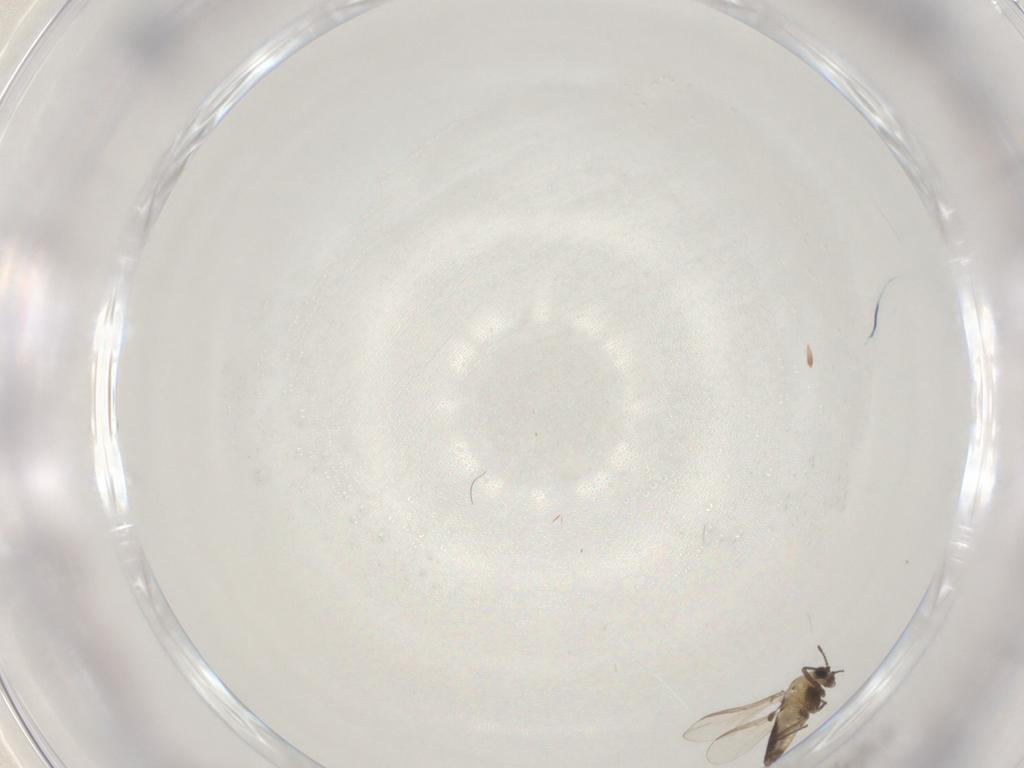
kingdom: Animalia
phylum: Arthropoda
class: Insecta
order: Diptera
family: Chironomidae
